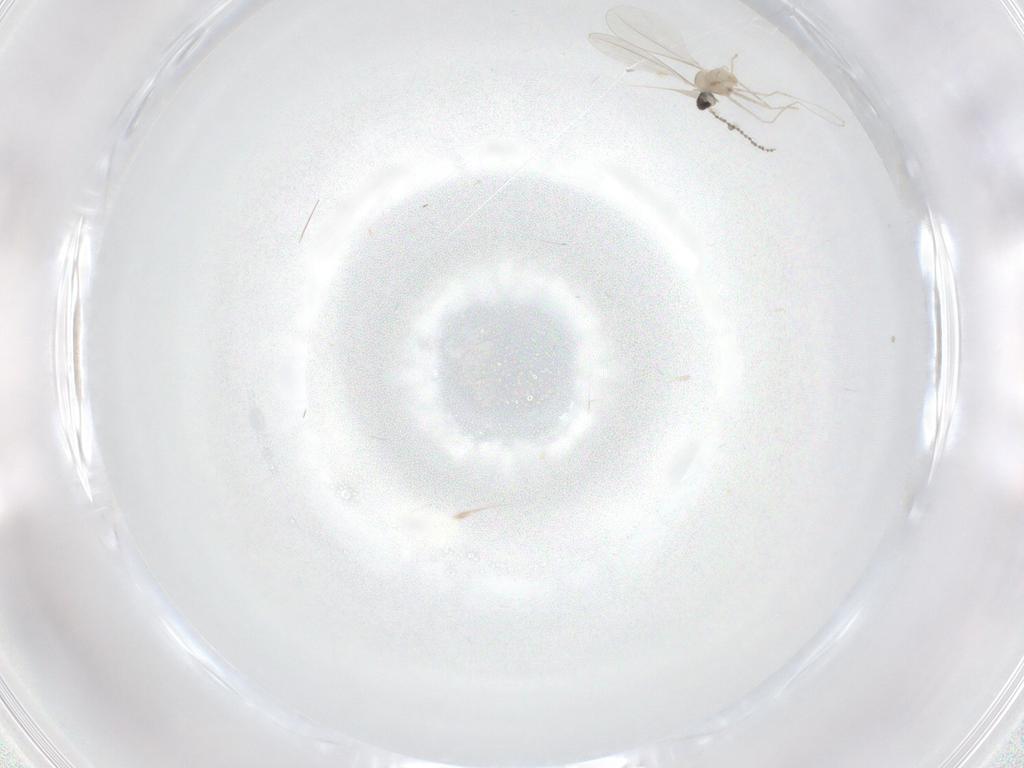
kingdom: Animalia
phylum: Arthropoda
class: Insecta
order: Diptera
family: Cecidomyiidae
